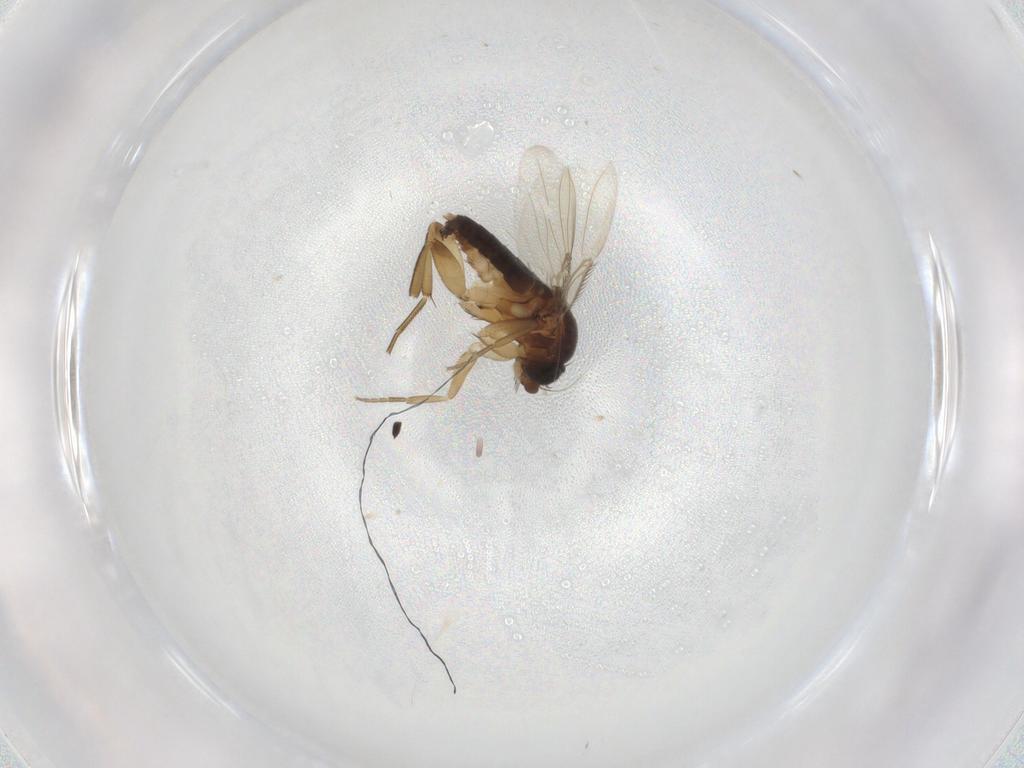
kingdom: Animalia
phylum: Arthropoda
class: Insecta
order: Diptera
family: Phoridae
